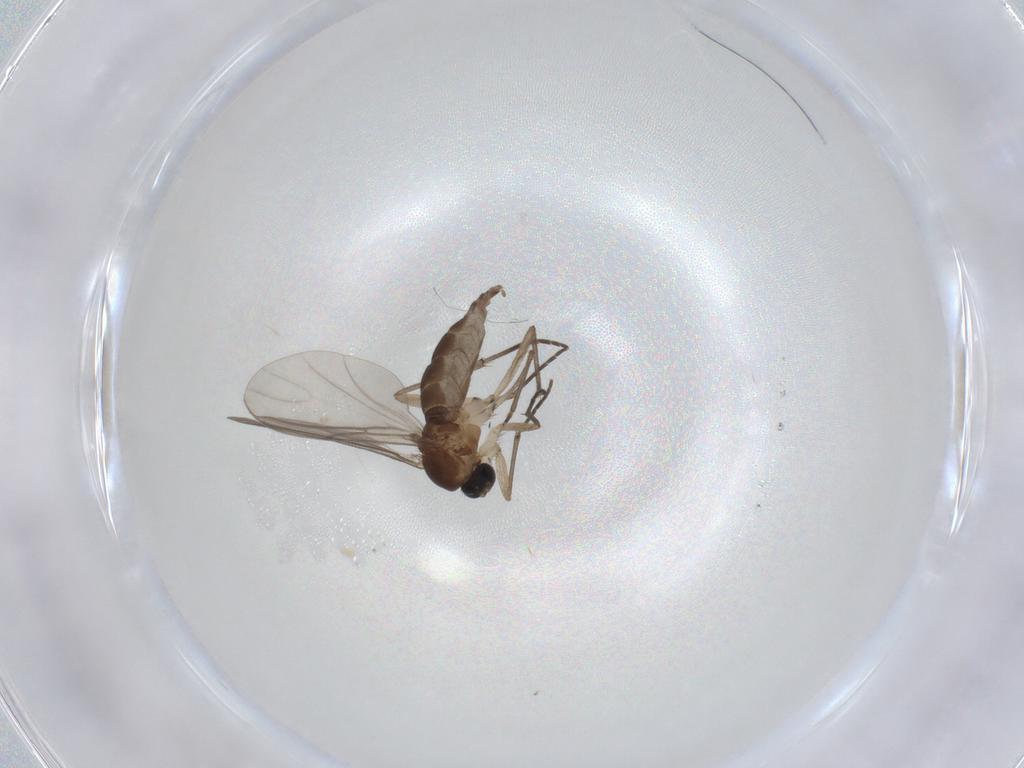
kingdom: Animalia
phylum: Arthropoda
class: Insecta
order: Diptera
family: Sciaridae
